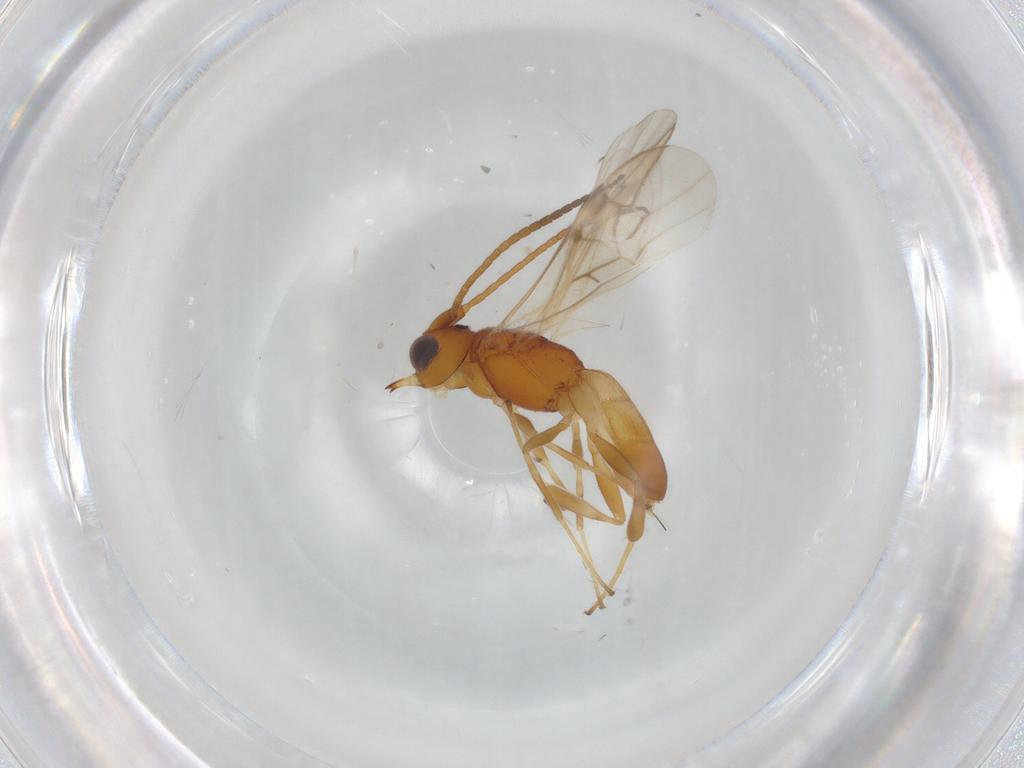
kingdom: Animalia
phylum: Arthropoda
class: Insecta
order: Hymenoptera
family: Braconidae
